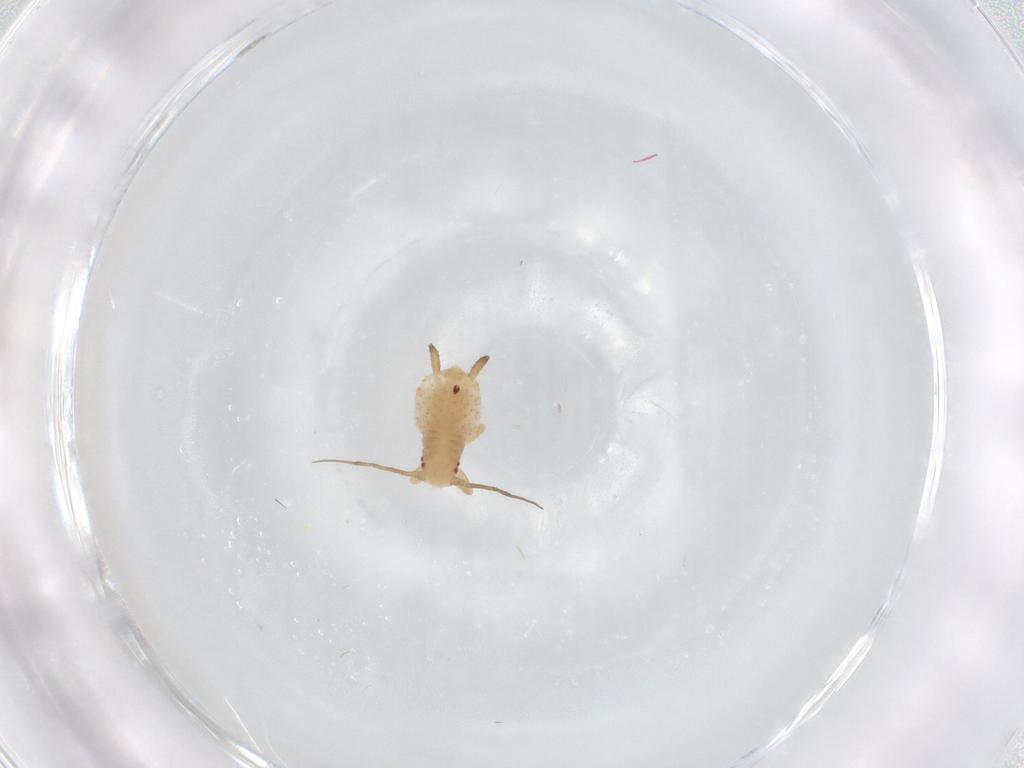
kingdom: Animalia
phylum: Arthropoda
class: Insecta
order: Hemiptera
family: Aphididae
